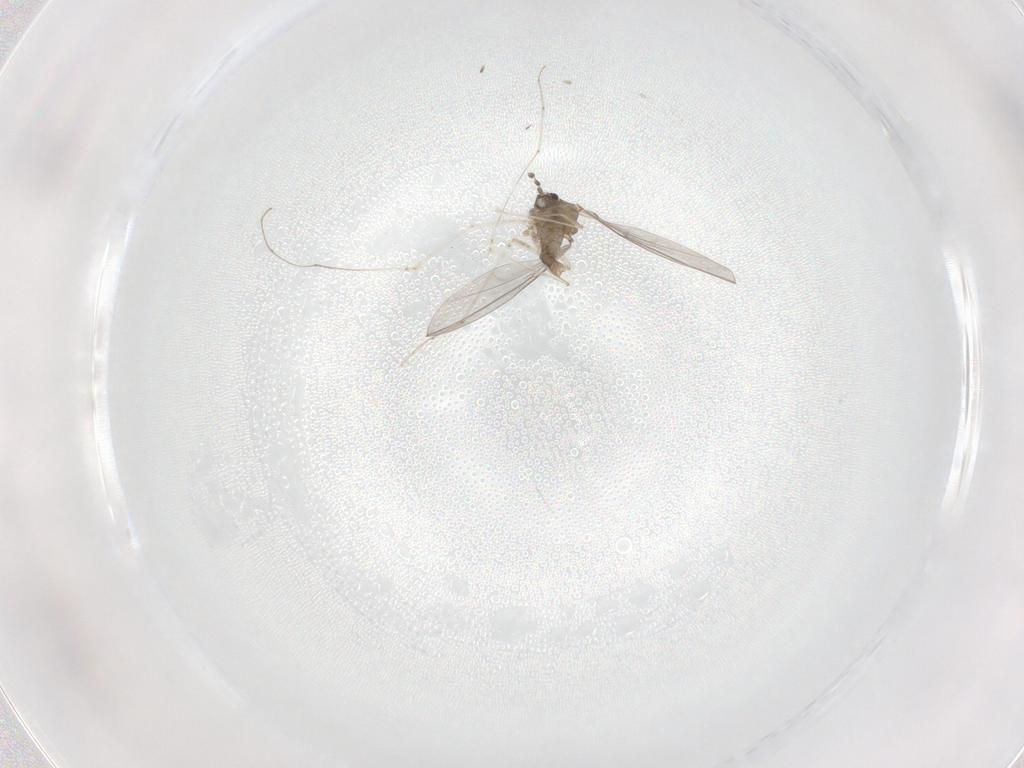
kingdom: Animalia
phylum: Arthropoda
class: Insecta
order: Diptera
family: Cecidomyiidae
